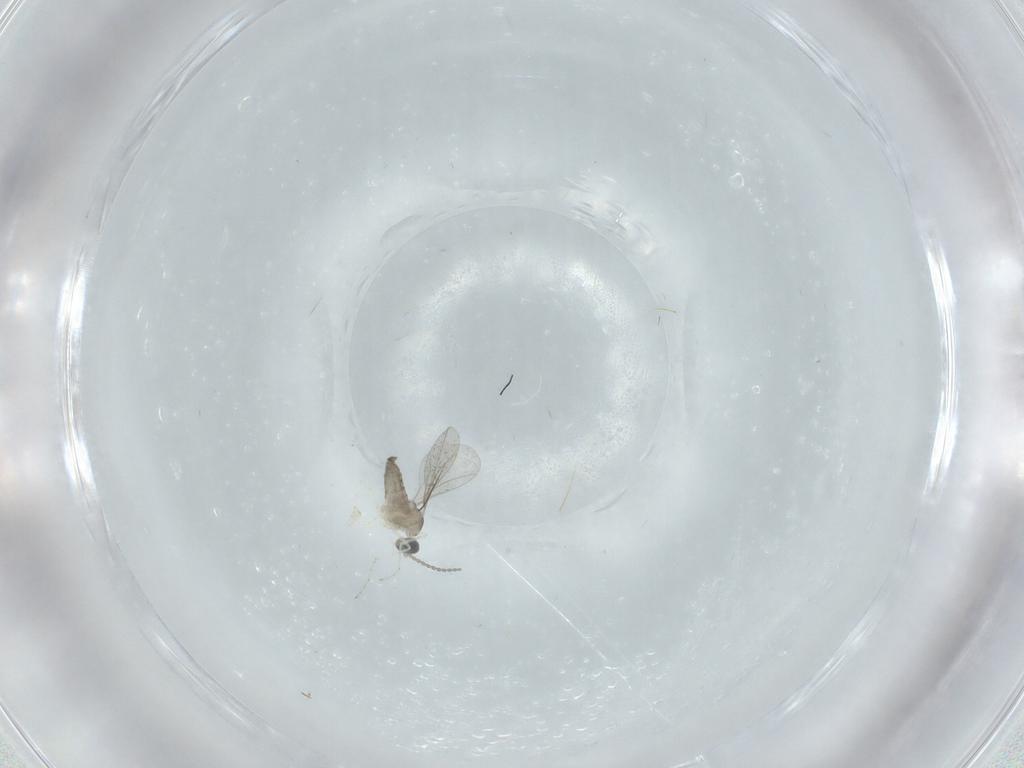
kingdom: Animalia
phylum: Arthropoda
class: Insecta
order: Diptera
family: Phoridae
